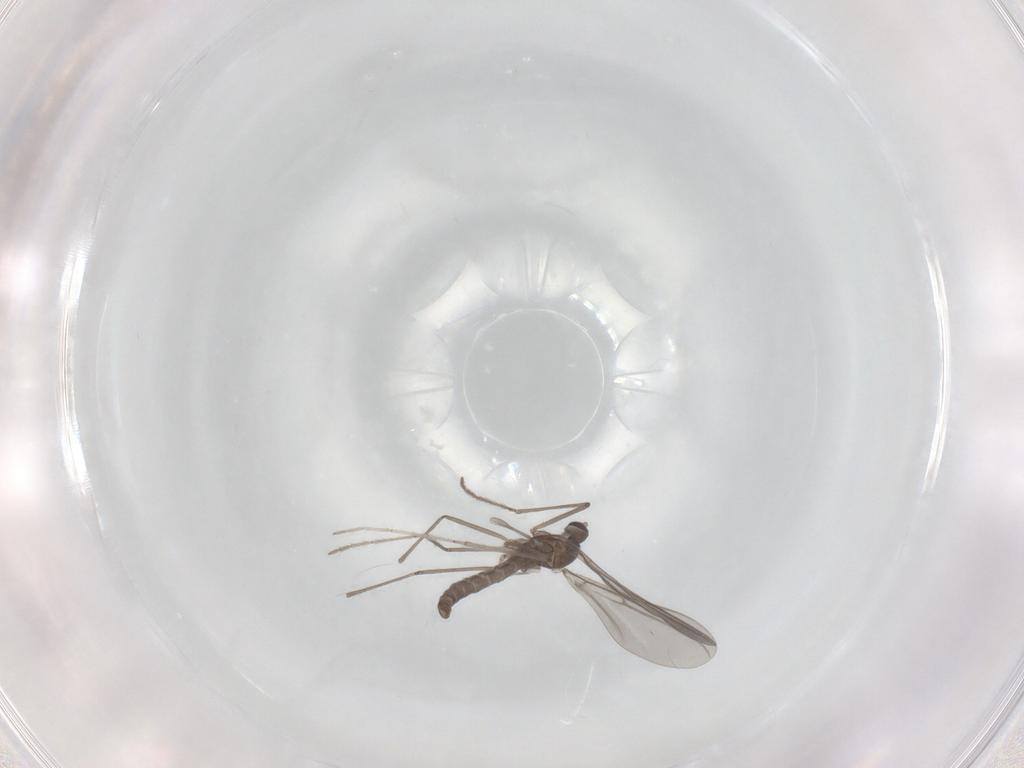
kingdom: Animalia
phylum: Arthropoda
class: Insecta
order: Diptera
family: Cecidomyiidae
